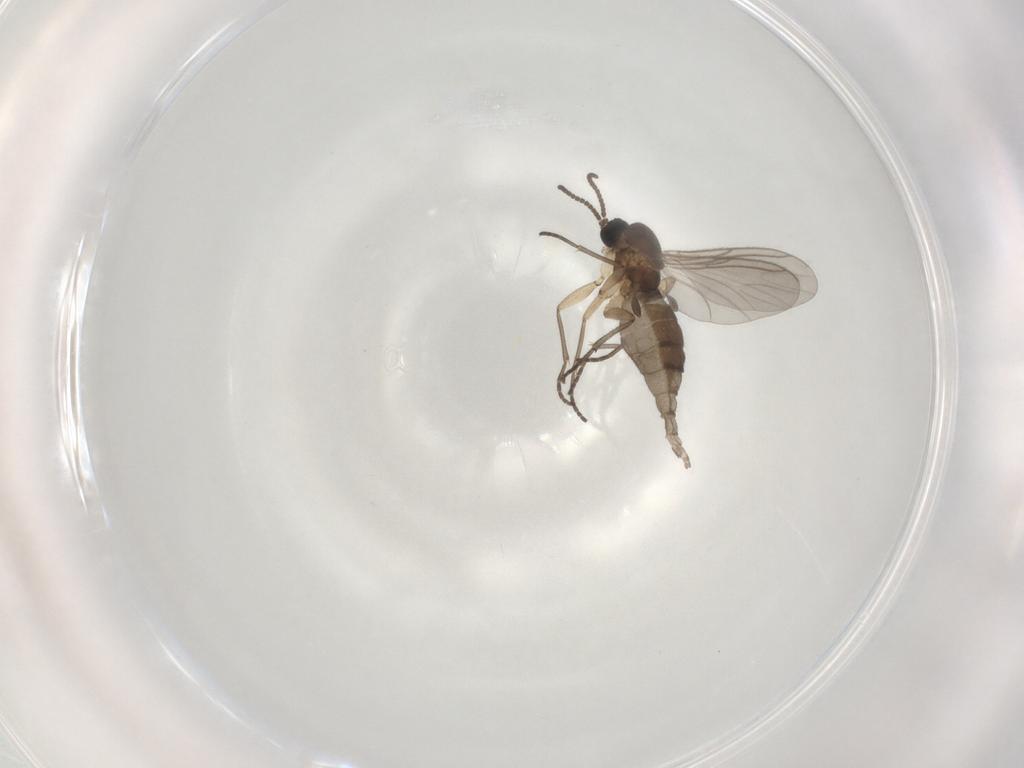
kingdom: Animalia
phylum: Arthropoda
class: Insecta
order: Diptera
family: Sciaridae
